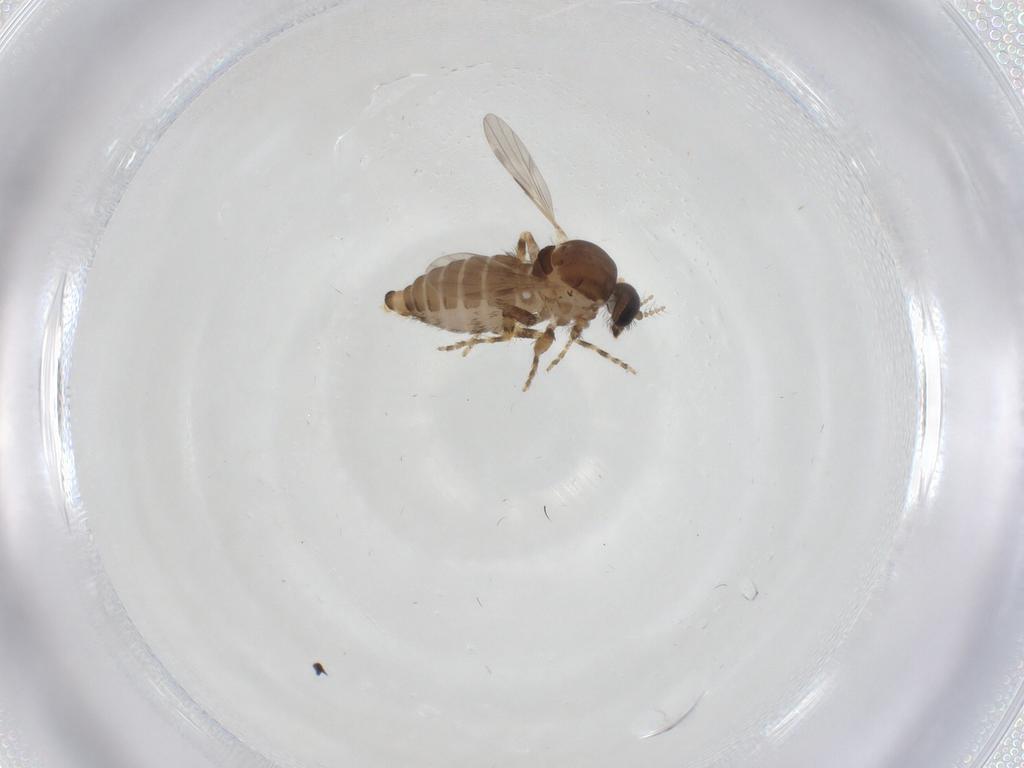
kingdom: Animalia
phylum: Arthropoda
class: Insecta
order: Diptera
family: Ceratopogonidae
